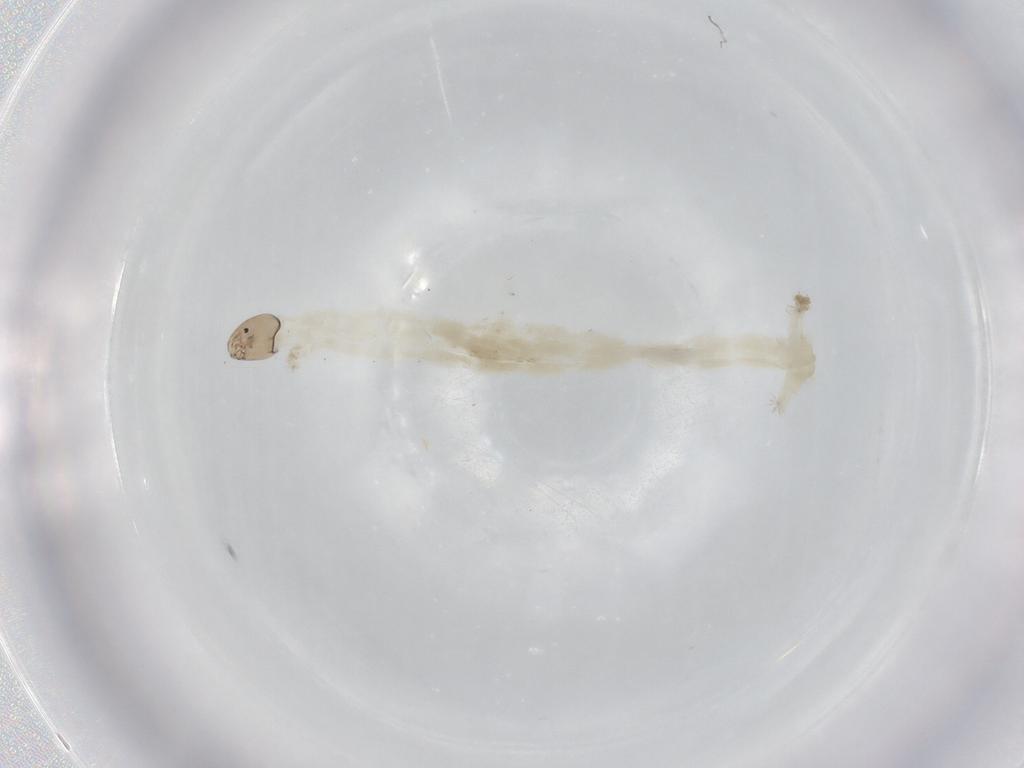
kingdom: Animalia
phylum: Arthropoda
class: Insecta
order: Diptera
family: Chironomidae
